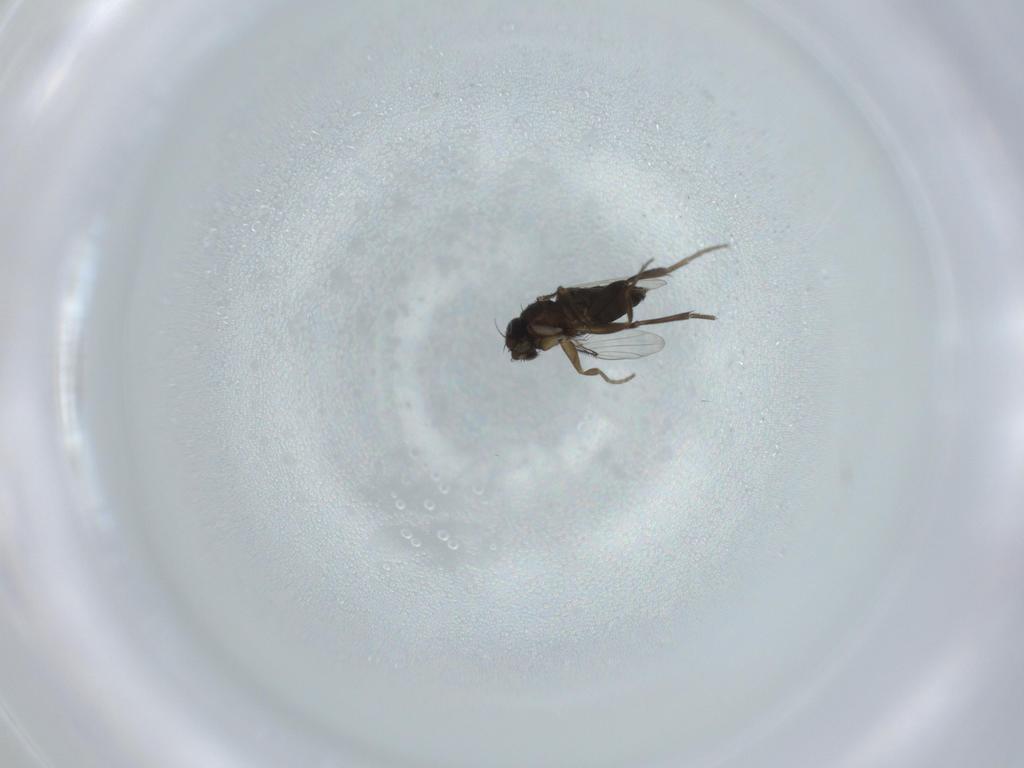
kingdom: Animalia
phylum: Arthropoda
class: Insecta
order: Diptera
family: Phoridae
